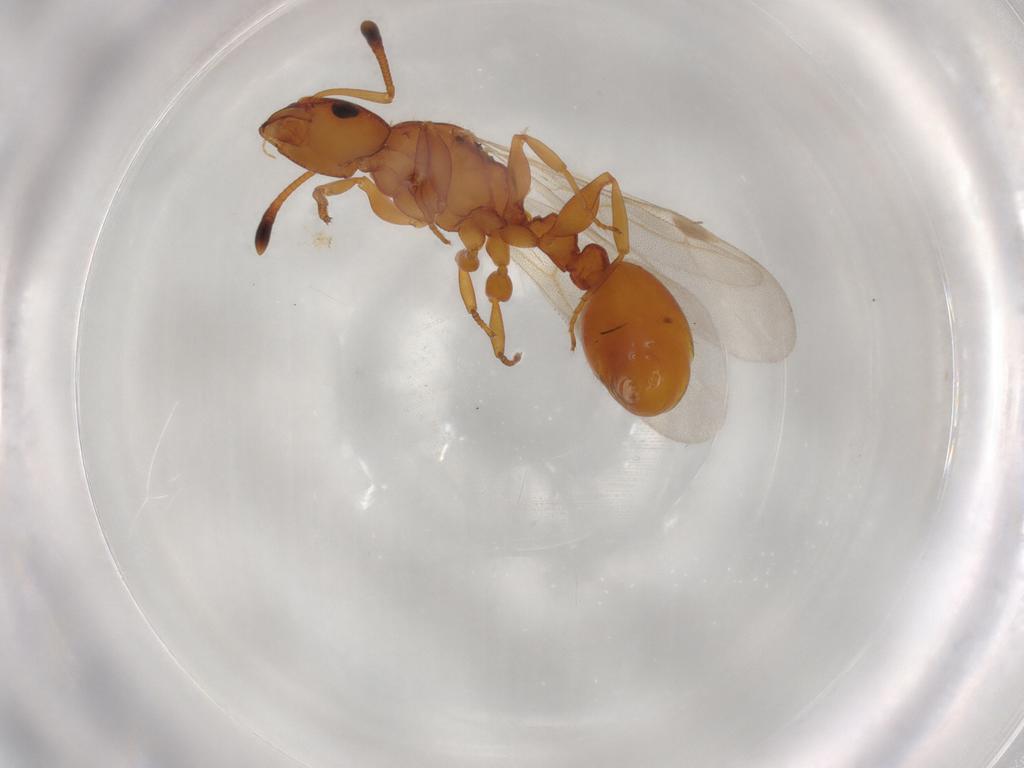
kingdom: Animalia
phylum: Arthropoda
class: Insecta
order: Hymenoptera
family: Formicidae
